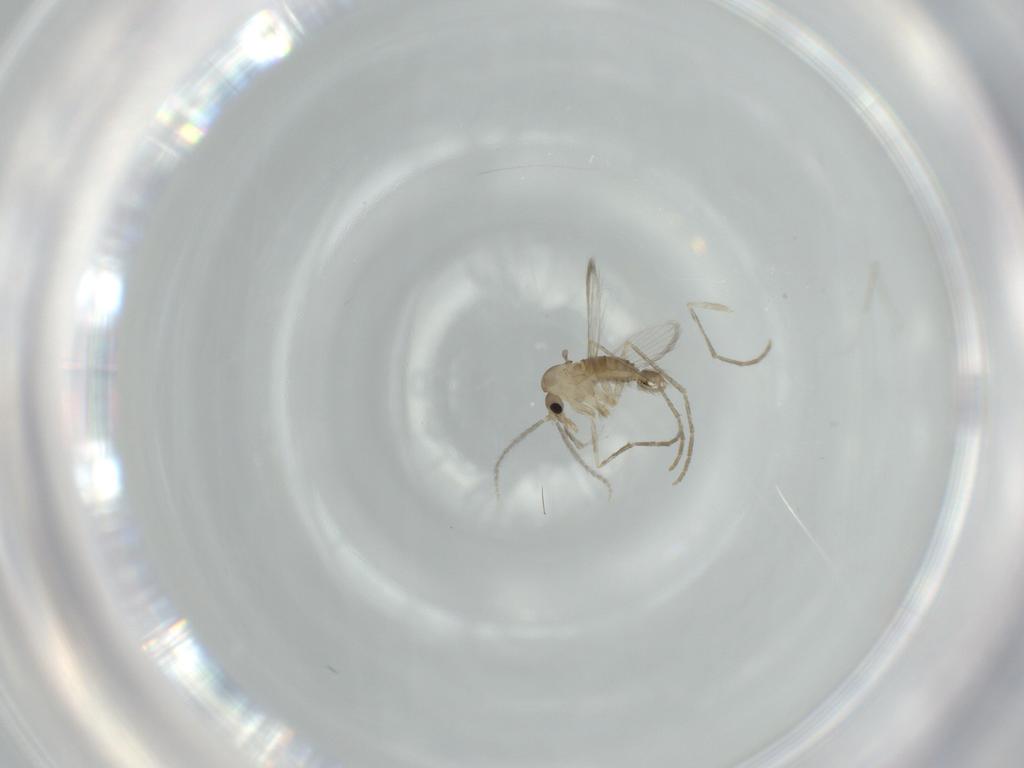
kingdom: Animalia
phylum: Arthropoda
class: Insecta
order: Diptera
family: Psychodidae
